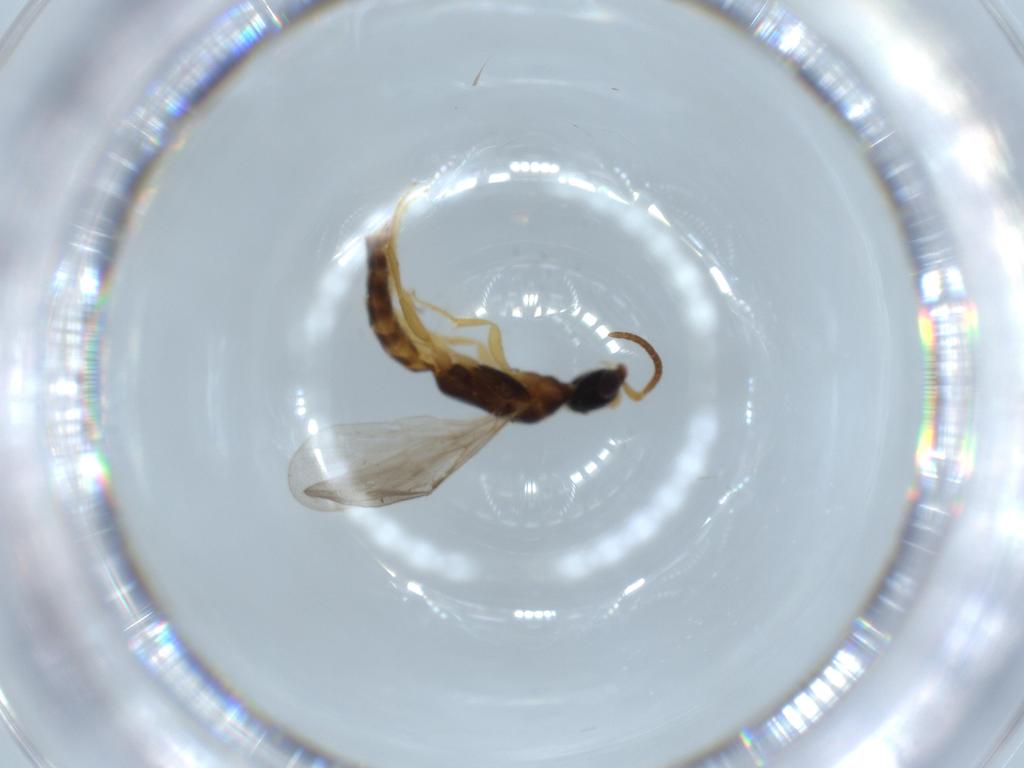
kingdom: Animalia
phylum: Arthropoda
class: Insecta
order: Hymenoptera
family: Bethylidae
